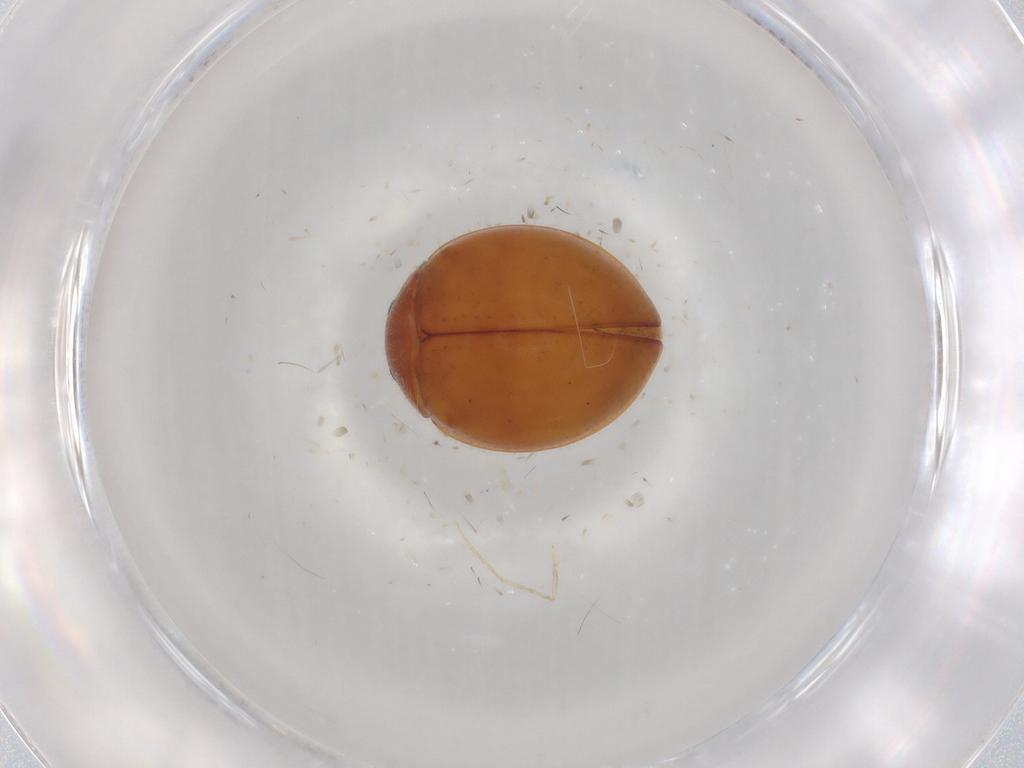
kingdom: Animalia
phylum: Arthropoda
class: Insecta
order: Coleoptera
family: Coccinellidae
